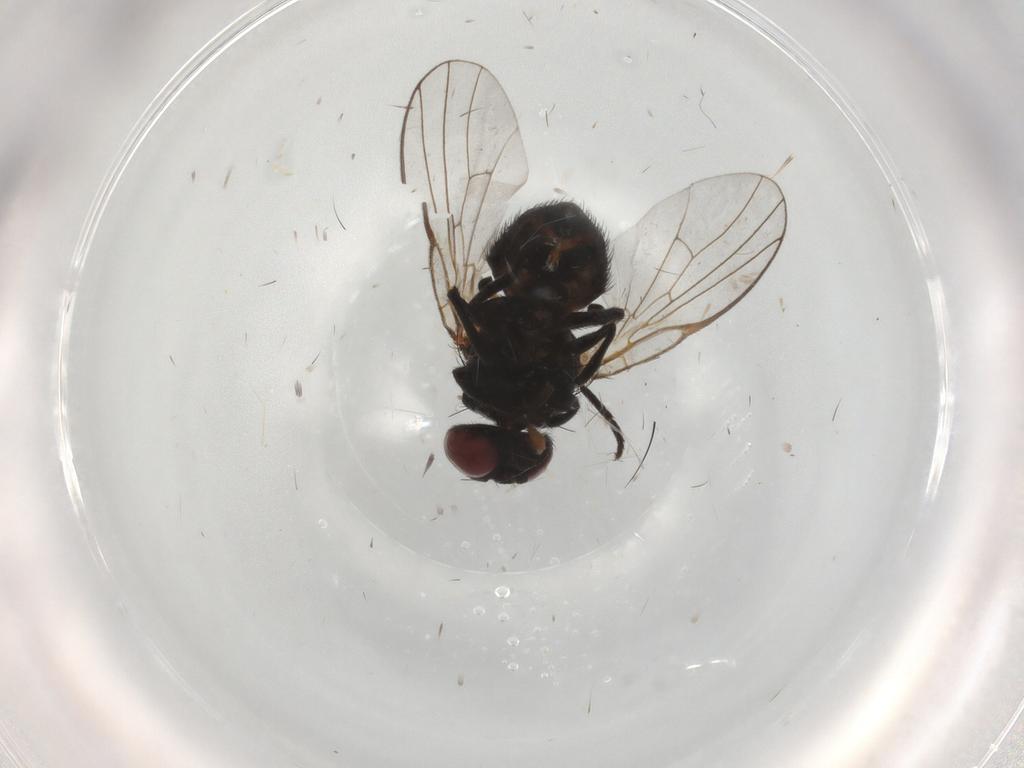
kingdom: Animalia
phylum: Arthropoda
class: Insecta
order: Diptera
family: Agromyzidae
